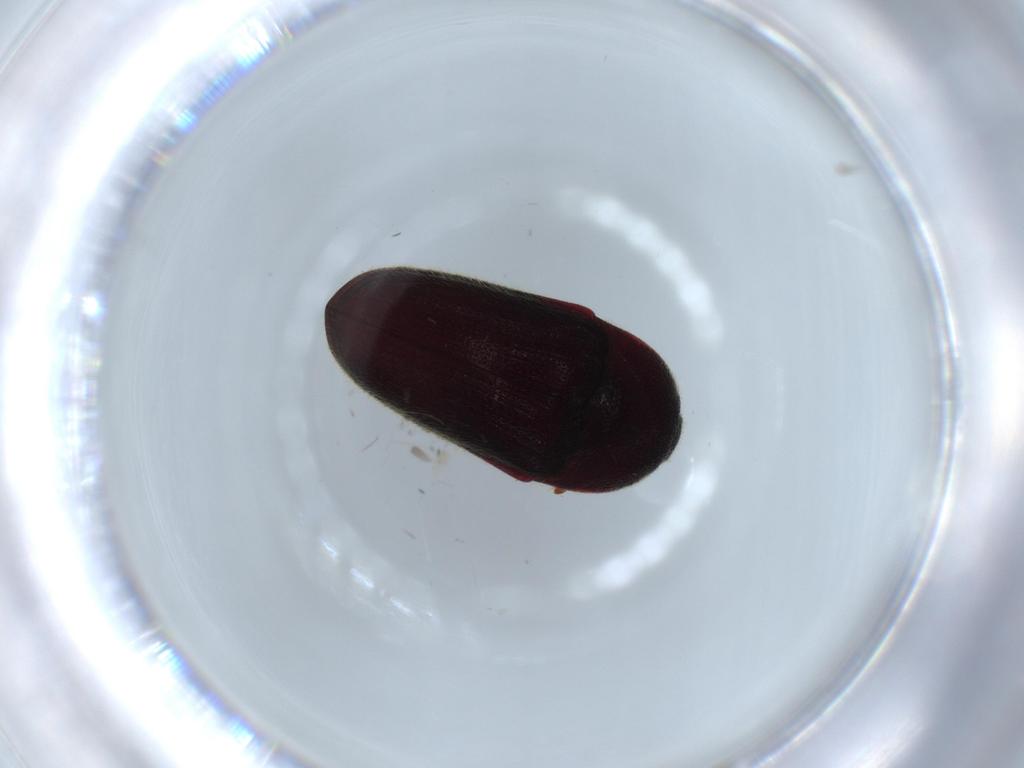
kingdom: Animalia
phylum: Arthropoda
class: Insecta
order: Coleoptera
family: Throscidae
